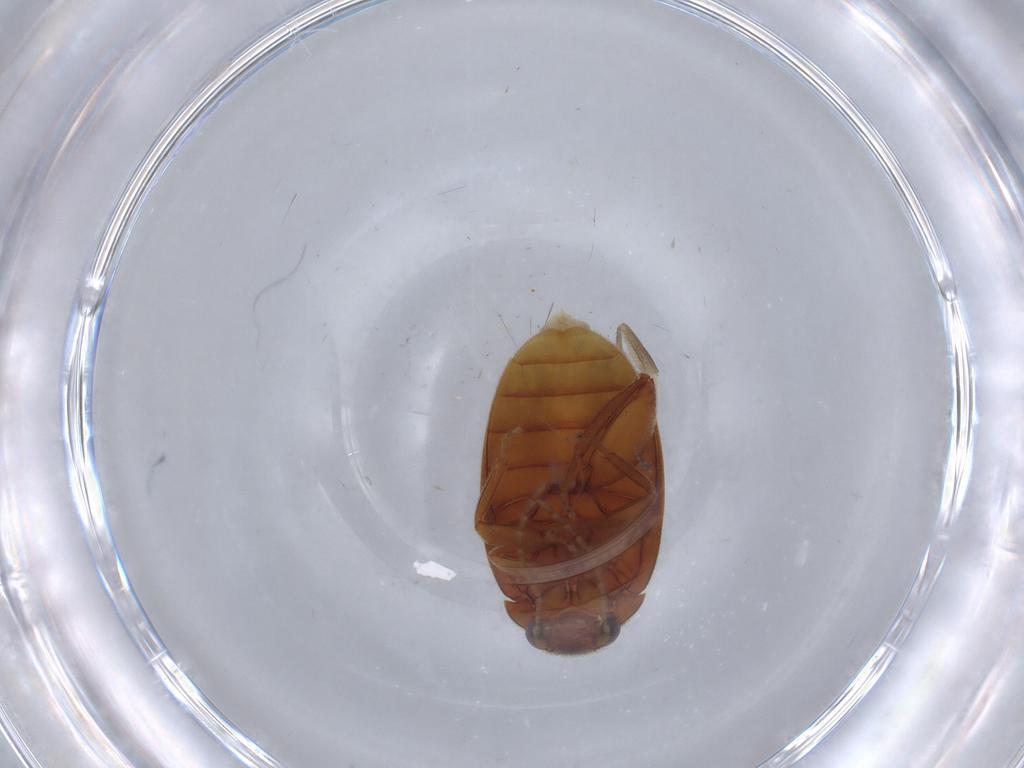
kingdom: Animalia
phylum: Arthropoda
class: Insecta
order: Coleoptera
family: Scirtidae
